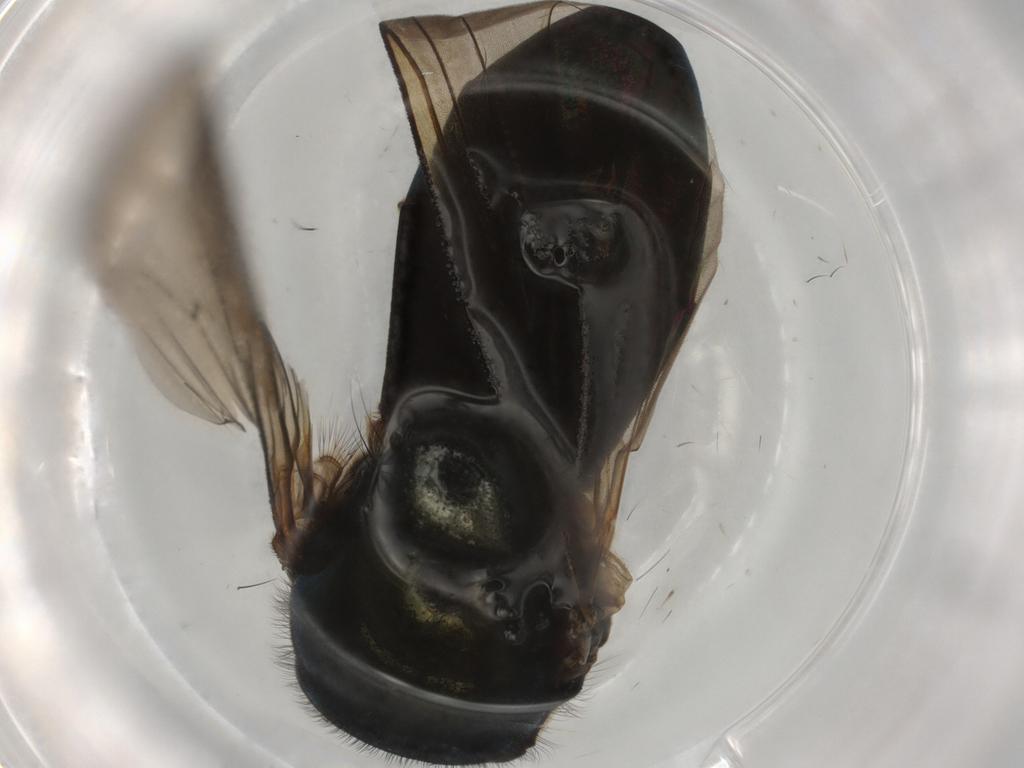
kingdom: Animalia
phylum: Arthropoda
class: Insecta
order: Diptera
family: Syrphidae
